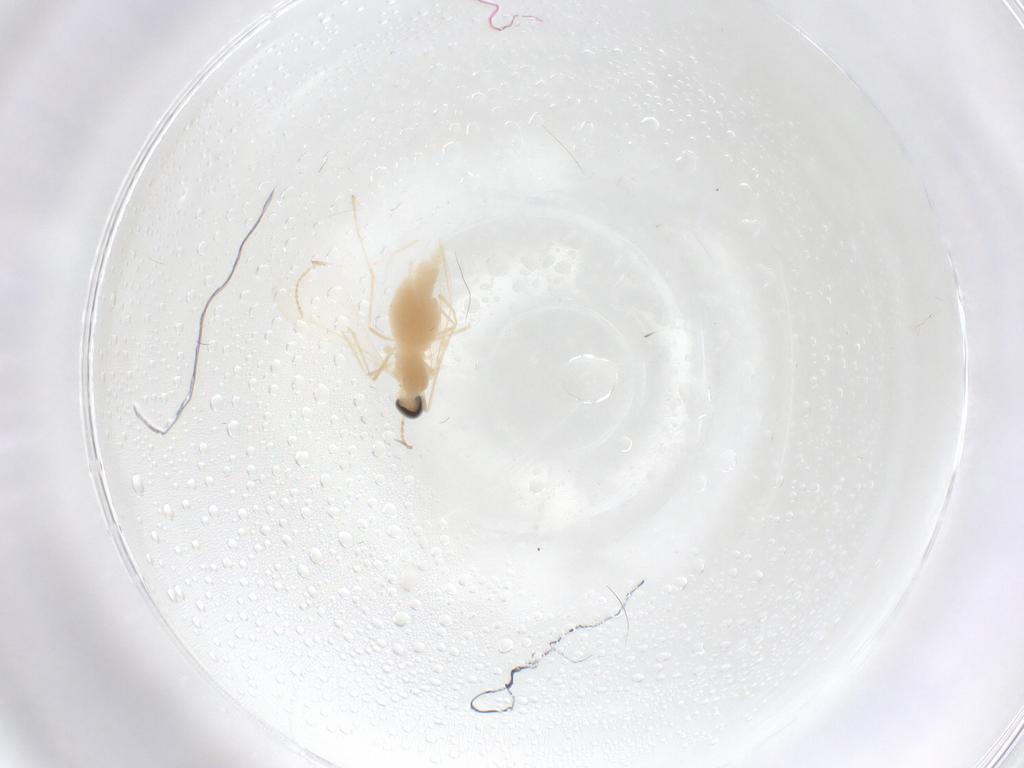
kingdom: Animalia
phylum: Arthropoda
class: Insecta
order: Diptera
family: Cecidomyiidae
